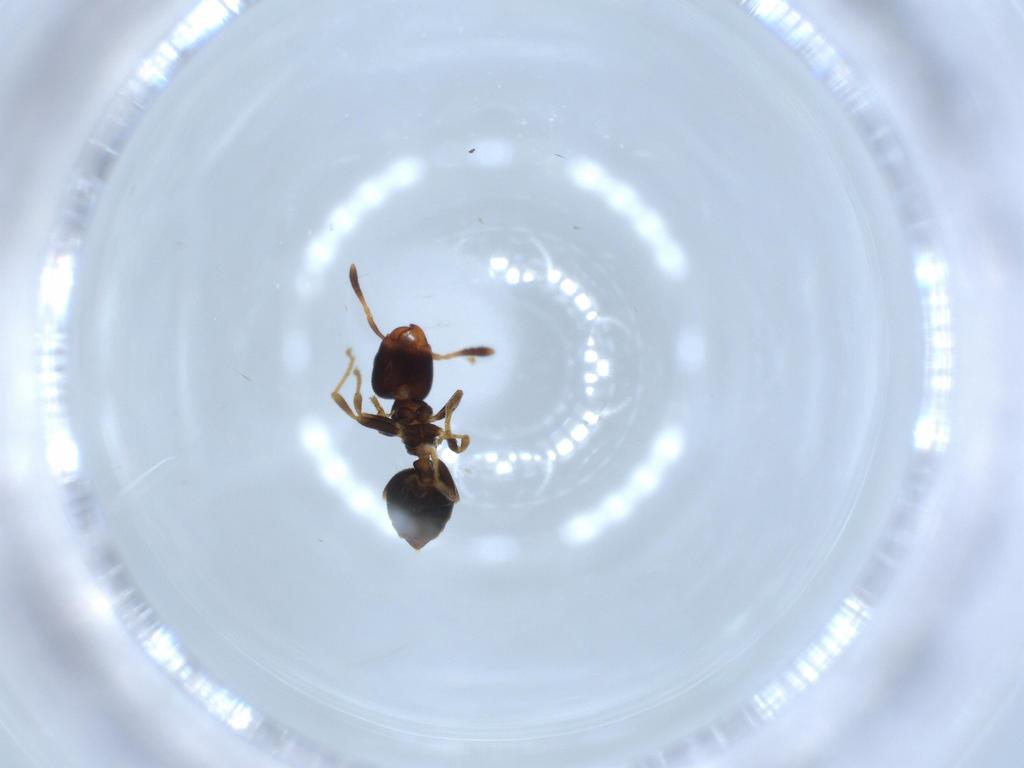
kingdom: Animalia
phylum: Arthropoda
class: Insecta
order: Hymenoptera
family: Formicidae
